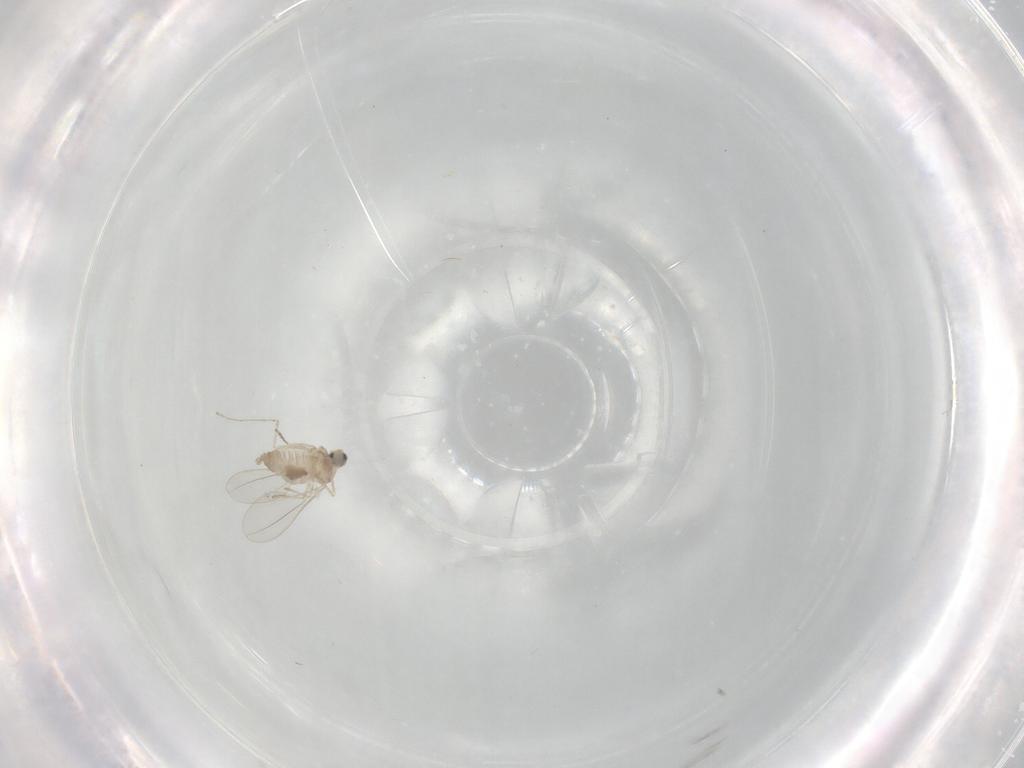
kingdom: Animalia
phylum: Arthropoda
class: Insecta
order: Diptera
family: Cecidomyiidae
